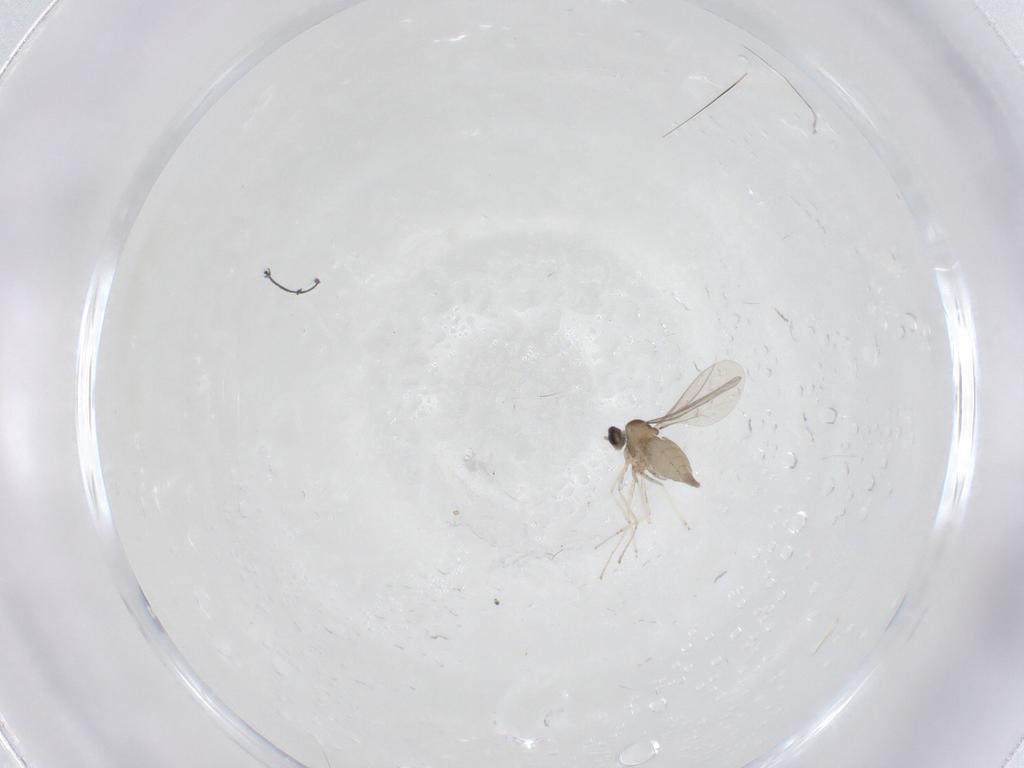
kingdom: Animalia
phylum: Arthropoda
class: Insecta
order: Diptera
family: Cecidomyiidae
